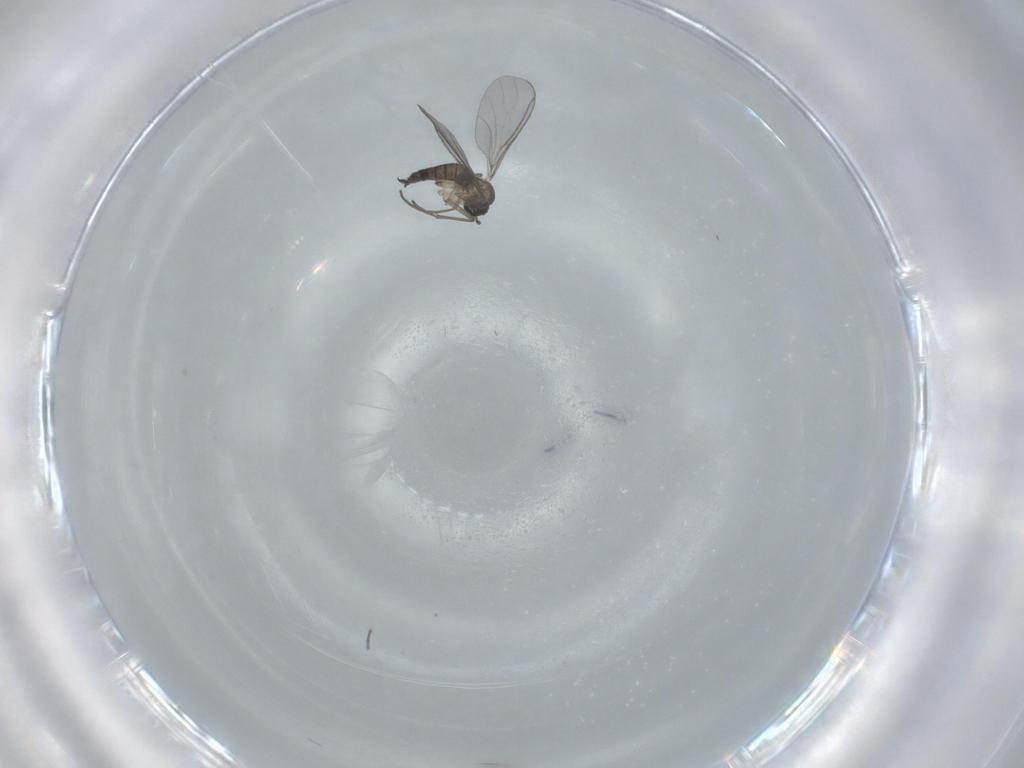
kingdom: Animalia
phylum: Arthropoda
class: Insecta
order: Diptera
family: Sciaridae
